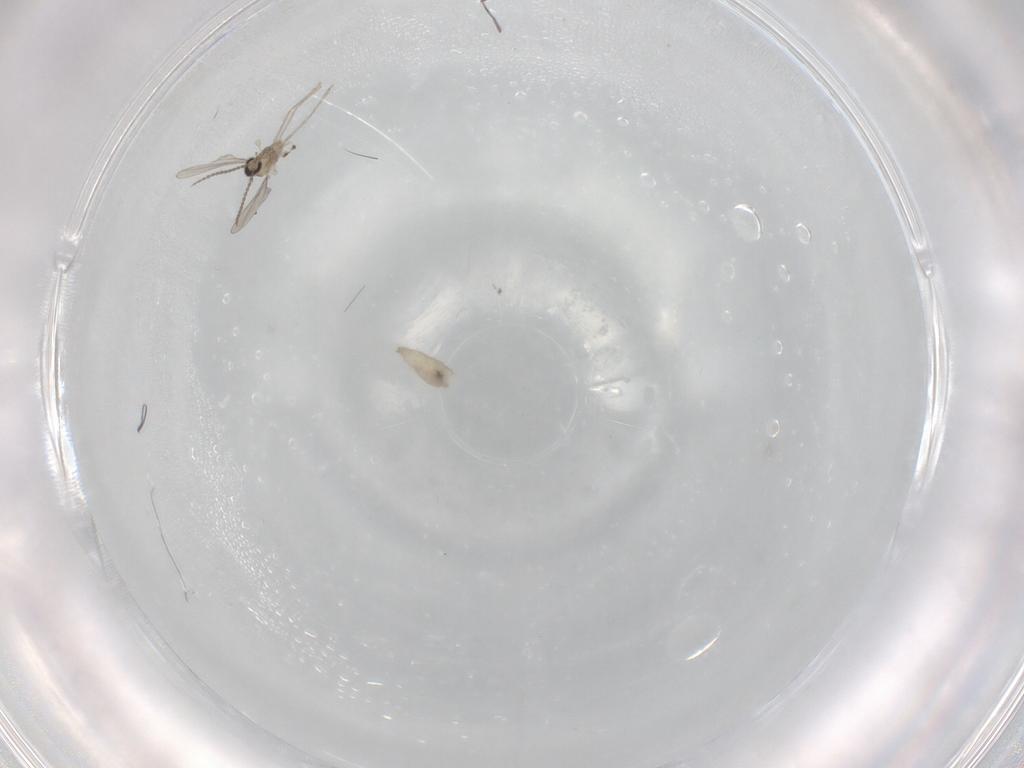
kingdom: Animalia
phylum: Arthropoda
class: Insecta
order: Diptera
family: Cecidomyiidae
